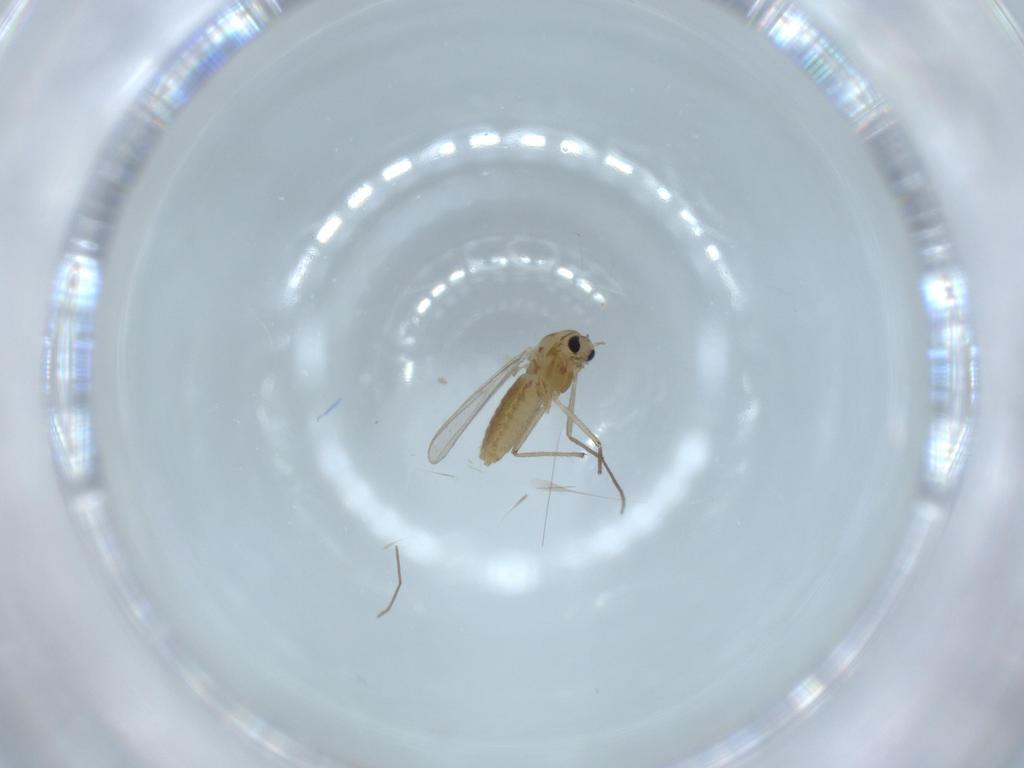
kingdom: Animalia
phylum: Arthropoda
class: Insecta
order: Diptera
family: Chironomidae
